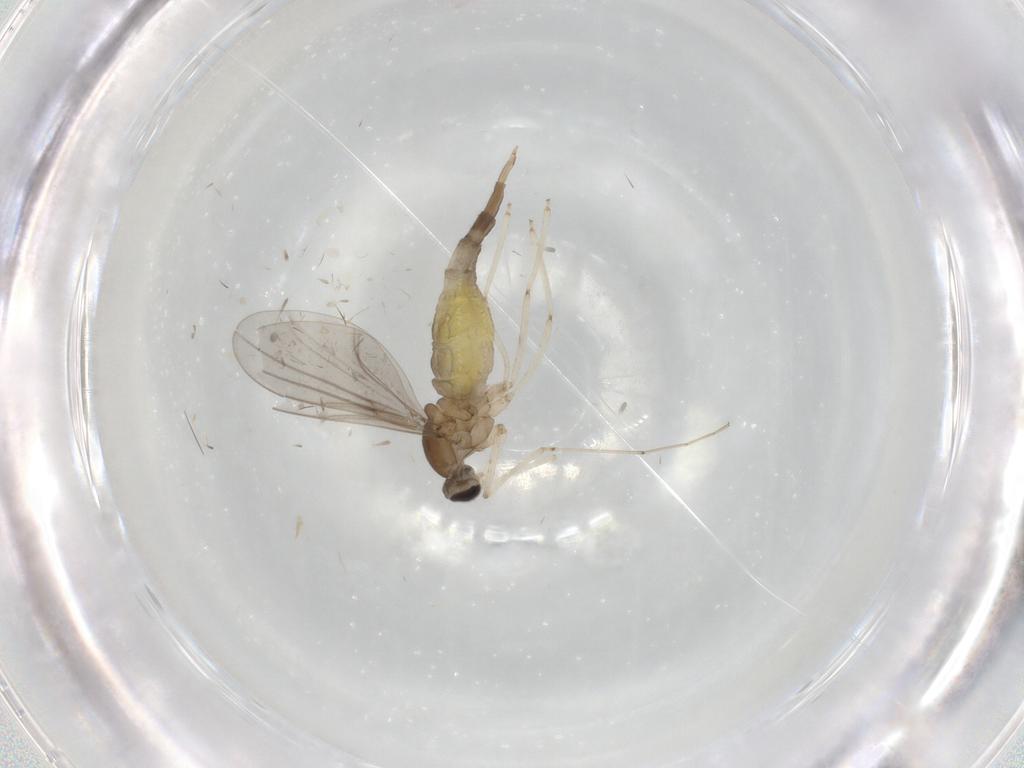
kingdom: Animalia
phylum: Arthropoda
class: Insecta
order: Diptera
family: Cecidomyiidae
